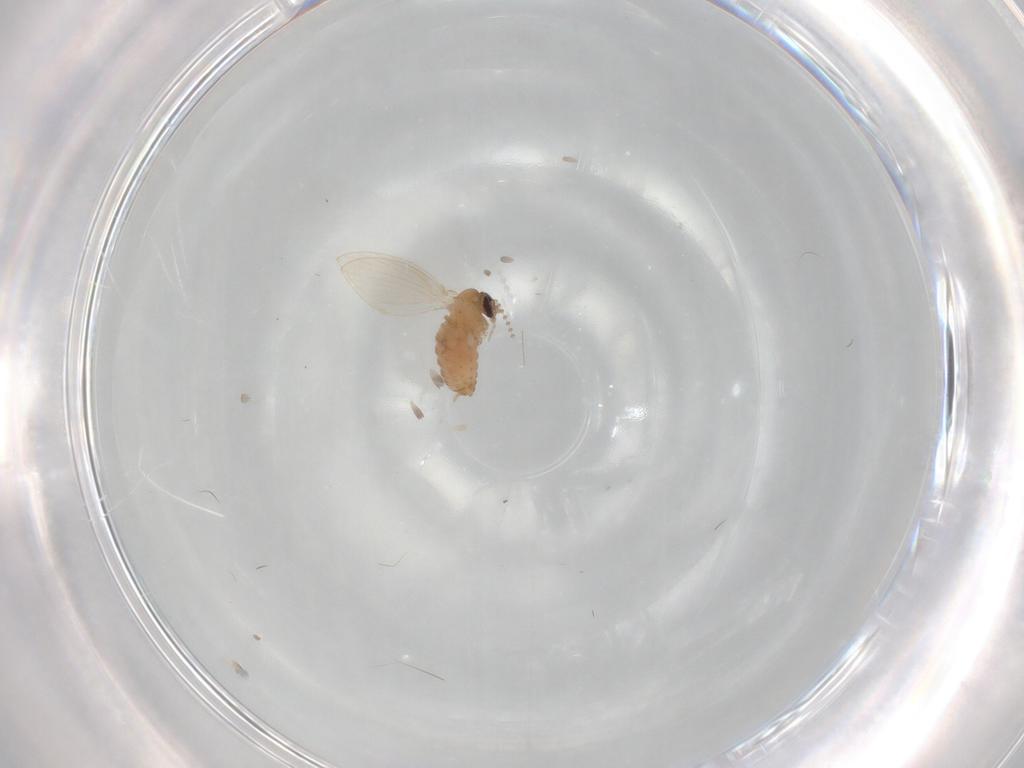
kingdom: Animalia
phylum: Arthropoda
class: Insecta
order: Diptera
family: Psychodidae
